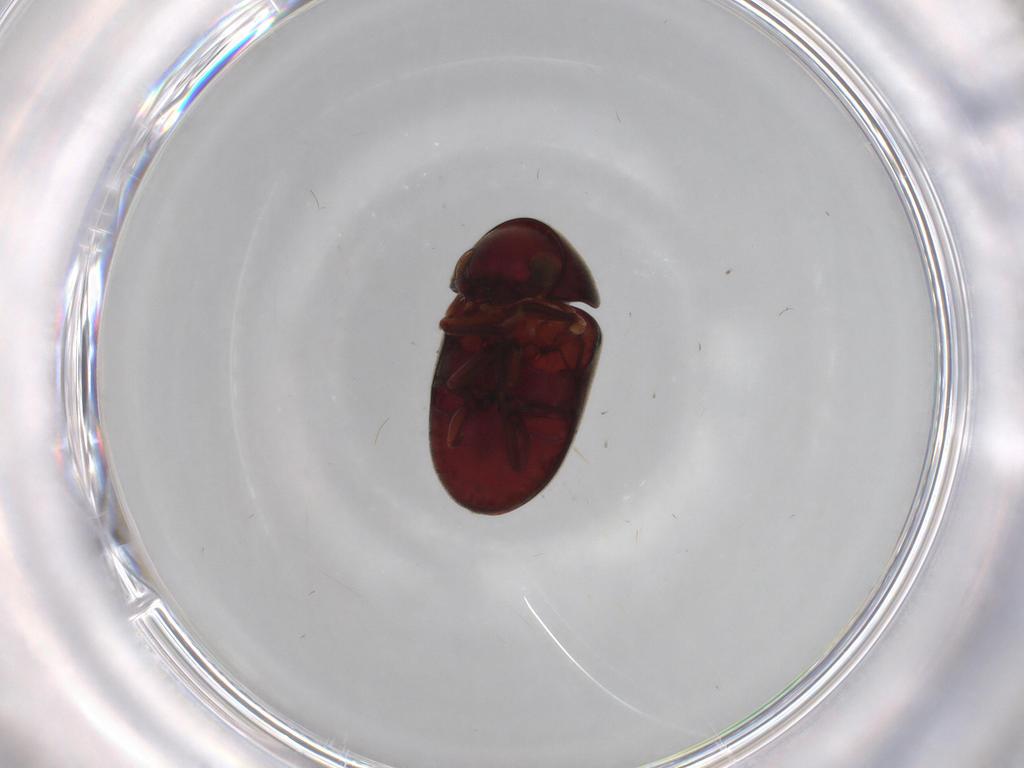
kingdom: Animalia
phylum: Arthropoda
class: Insecta
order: Coleoptera
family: Ptinidae
